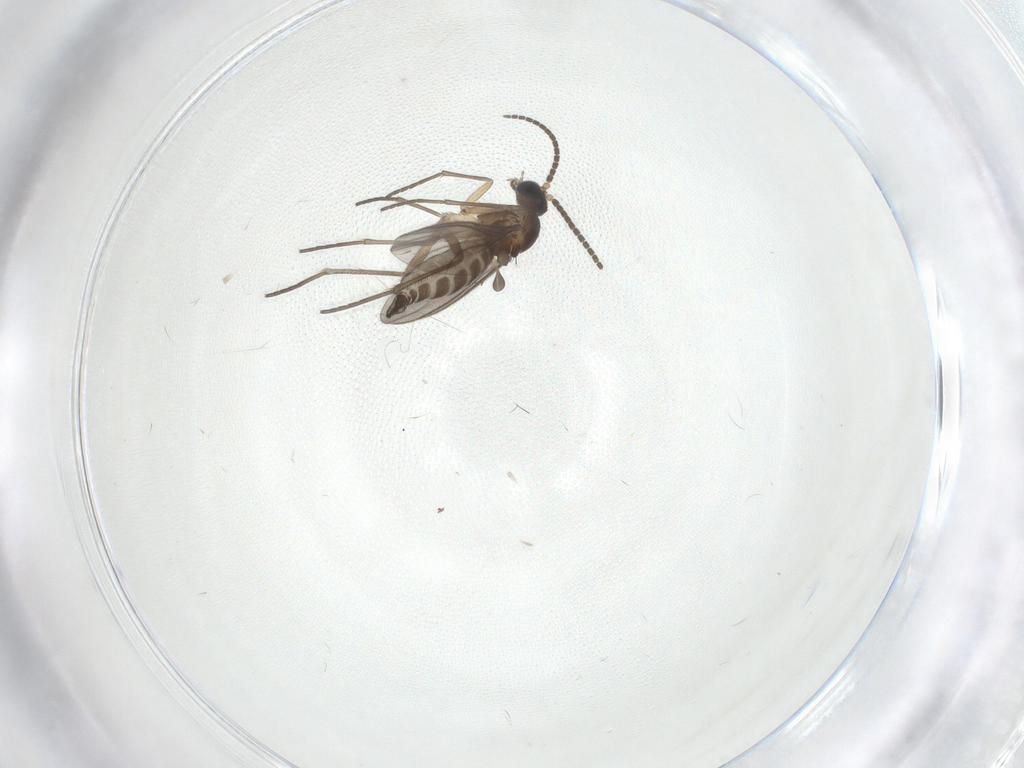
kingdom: Animalia
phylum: Arthropoda
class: Insecta
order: Diptera
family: Sciaridae
